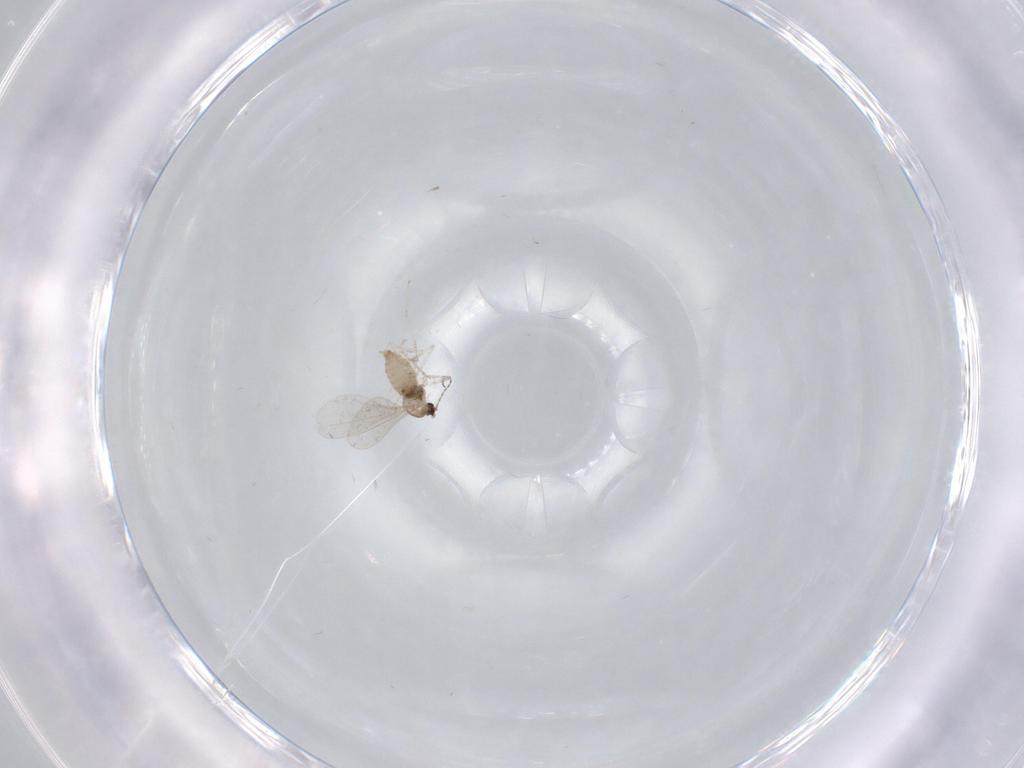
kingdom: Animalia
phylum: Arthropoda
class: Insecta
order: Diptera
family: Cecidomyiidae
